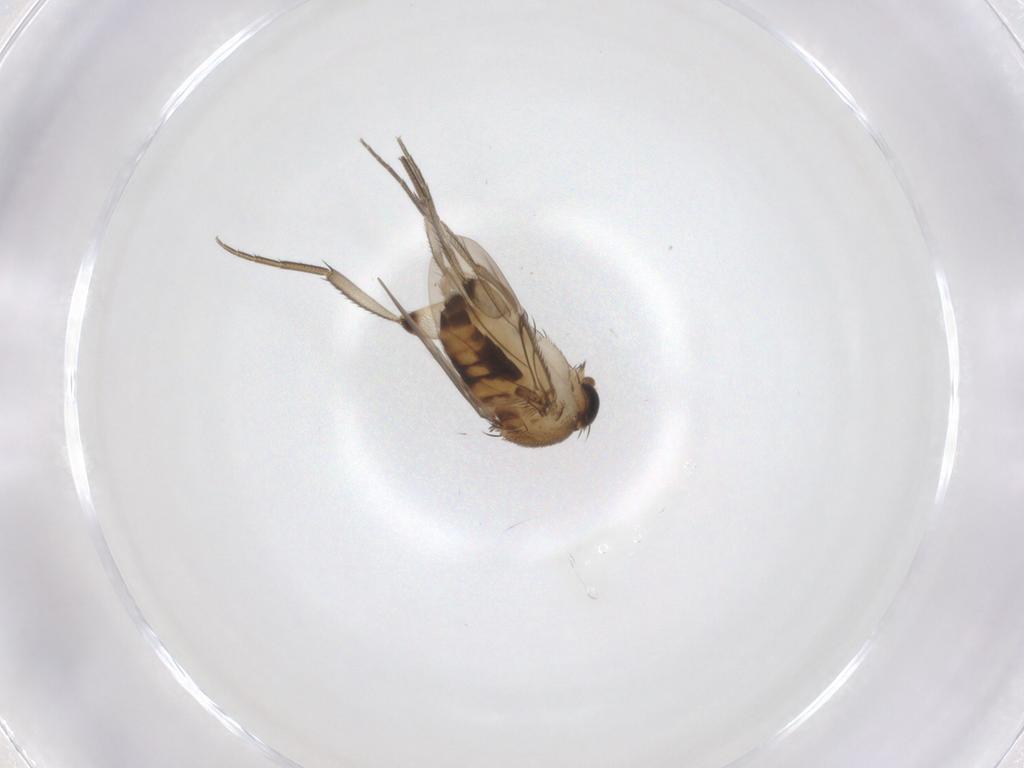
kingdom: Animalia
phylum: Arthropoda
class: Insecta
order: Diptera
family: Phoridae
